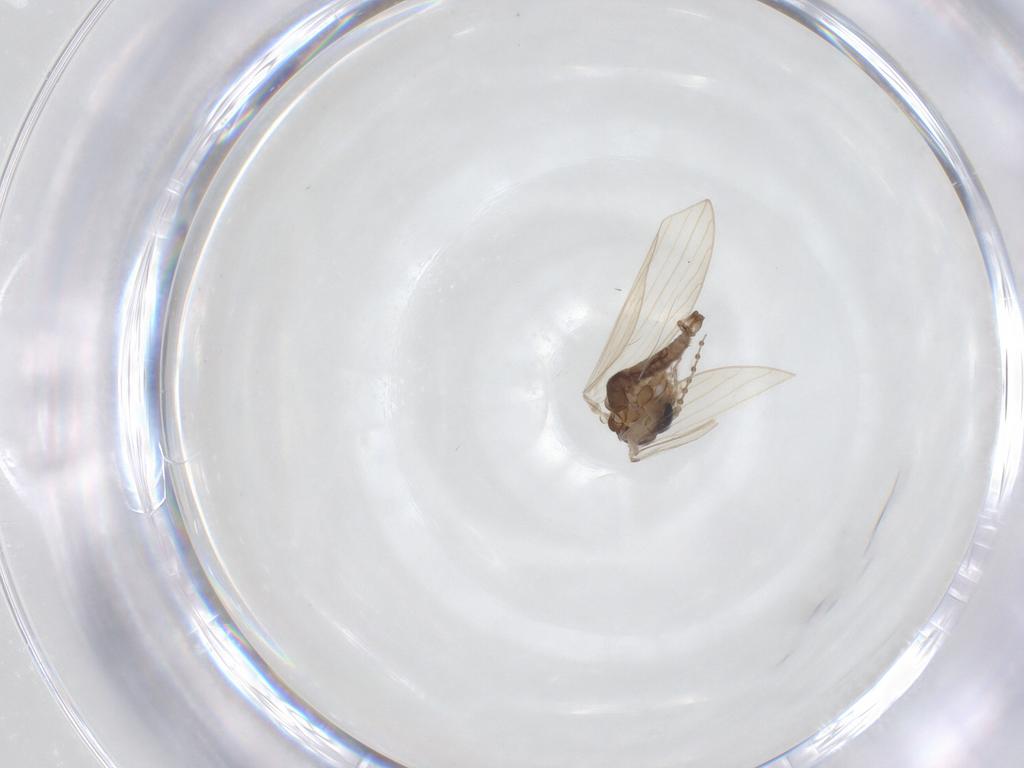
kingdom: Animalia
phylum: Arthropoda
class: Insecta
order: Diptera
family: Psychodidae
